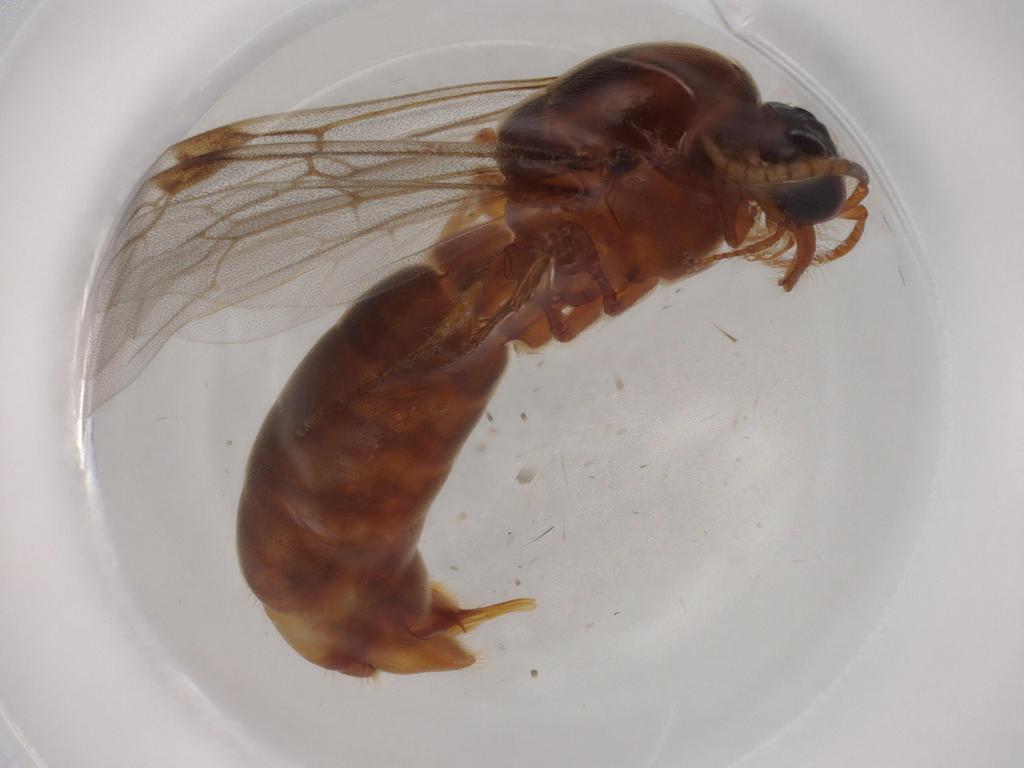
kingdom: Animalia
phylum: Arthropoda
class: Insecta
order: Hymenoptera
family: Formicidae
